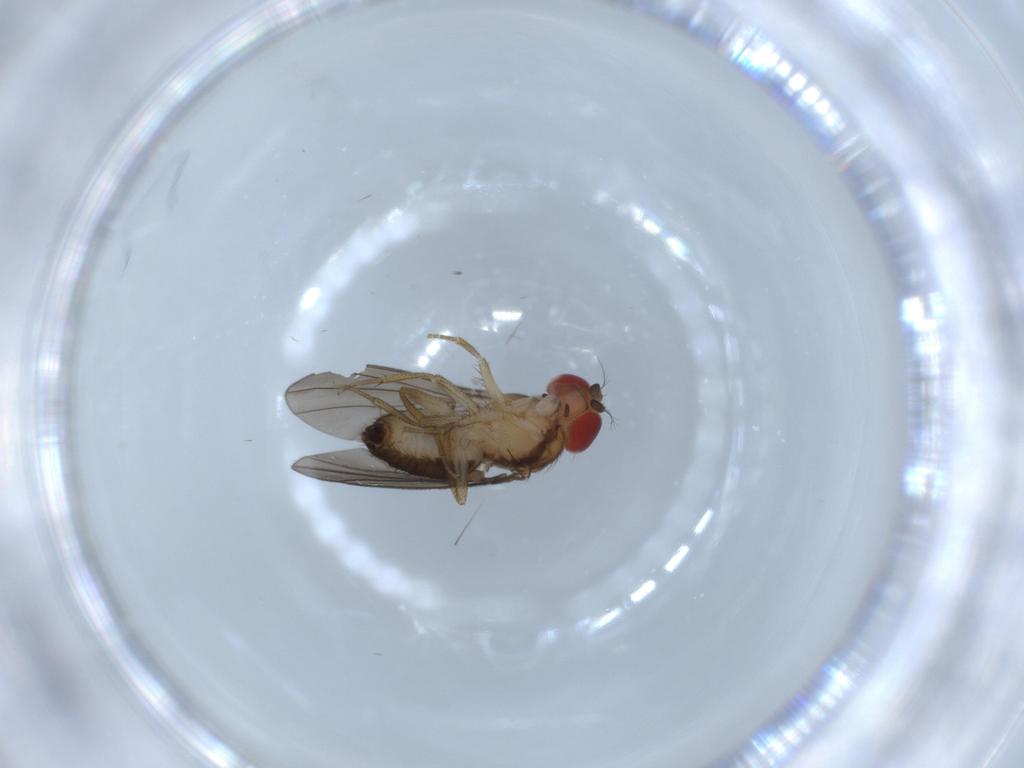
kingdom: Animalia
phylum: Arthropoda
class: Insecta
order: Diptera
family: Drosophilidae
